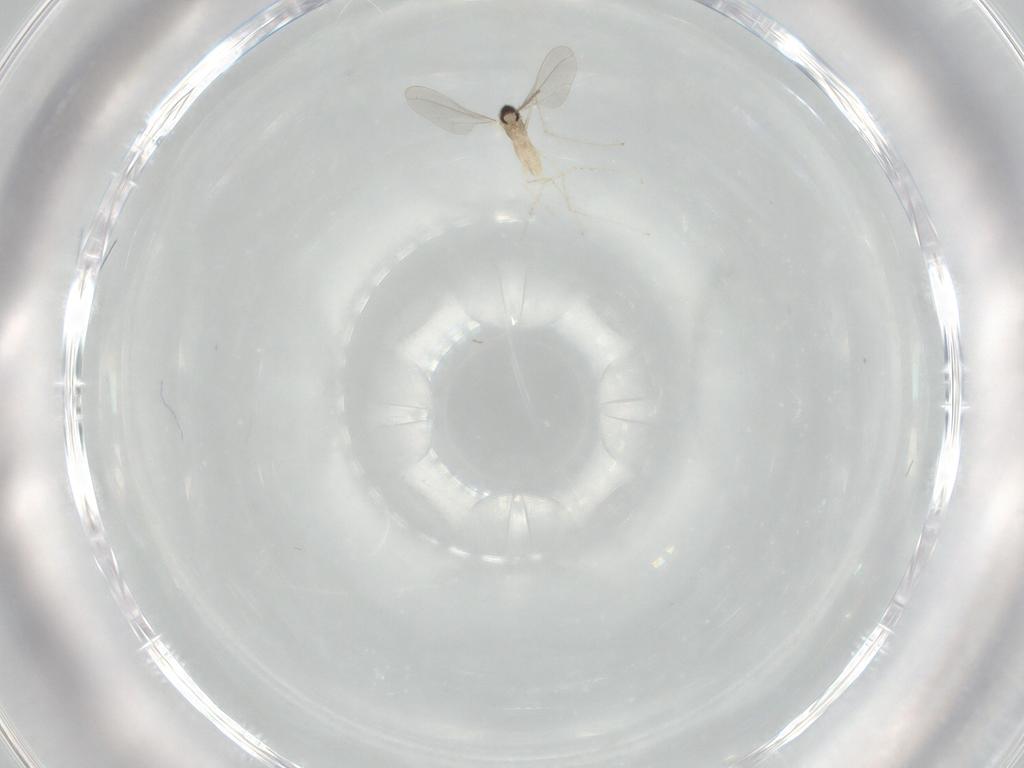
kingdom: Animalia
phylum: Arthropoda
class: Insecta
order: Diptera
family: Cecidomyiidae
